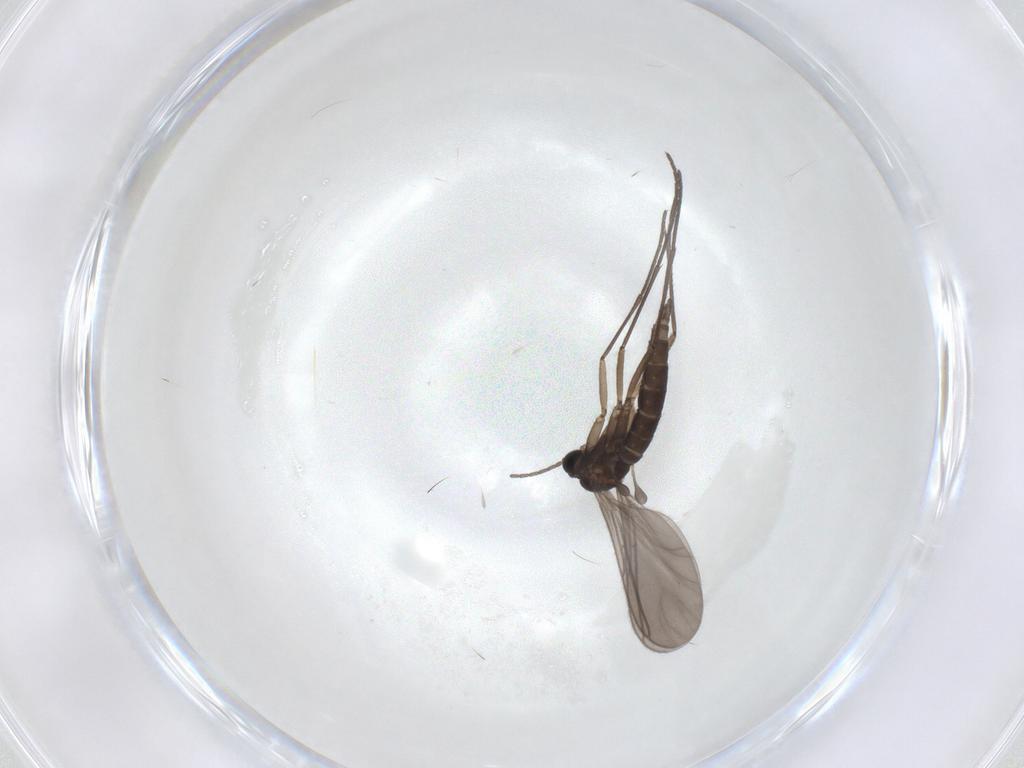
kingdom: Animalia
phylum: Arthropoda
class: Insecta
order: Diptera
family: Sciaridae
